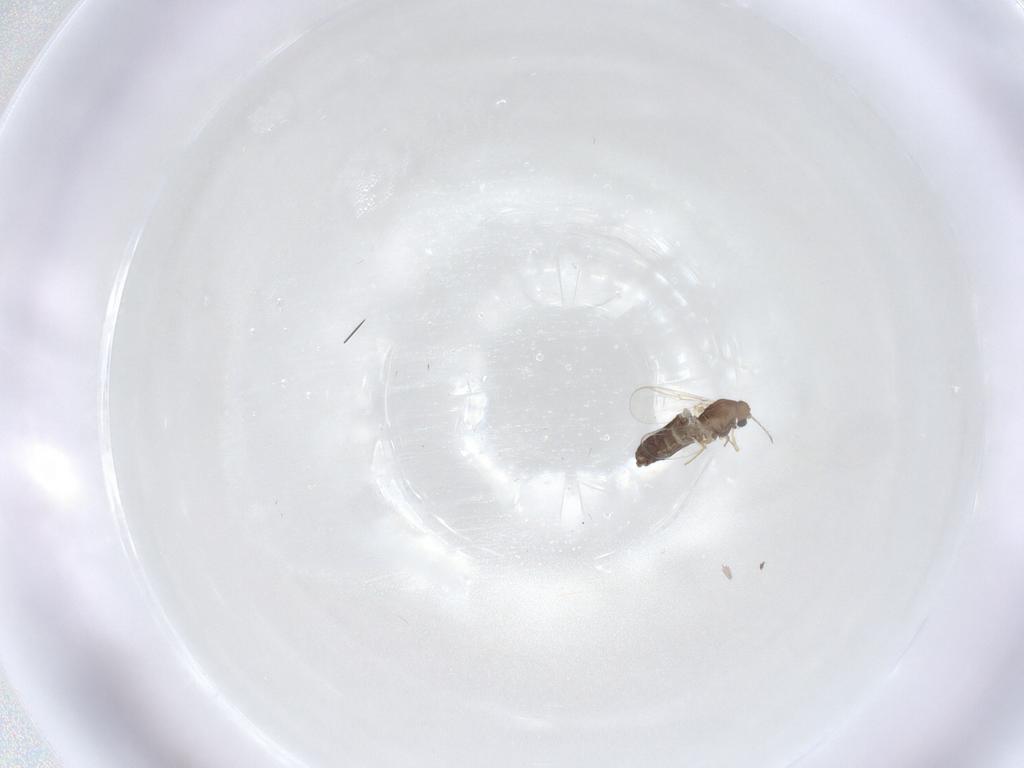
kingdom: Animalia
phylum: Arthropoda
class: Insecta
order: Diptera
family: Chironomidae
